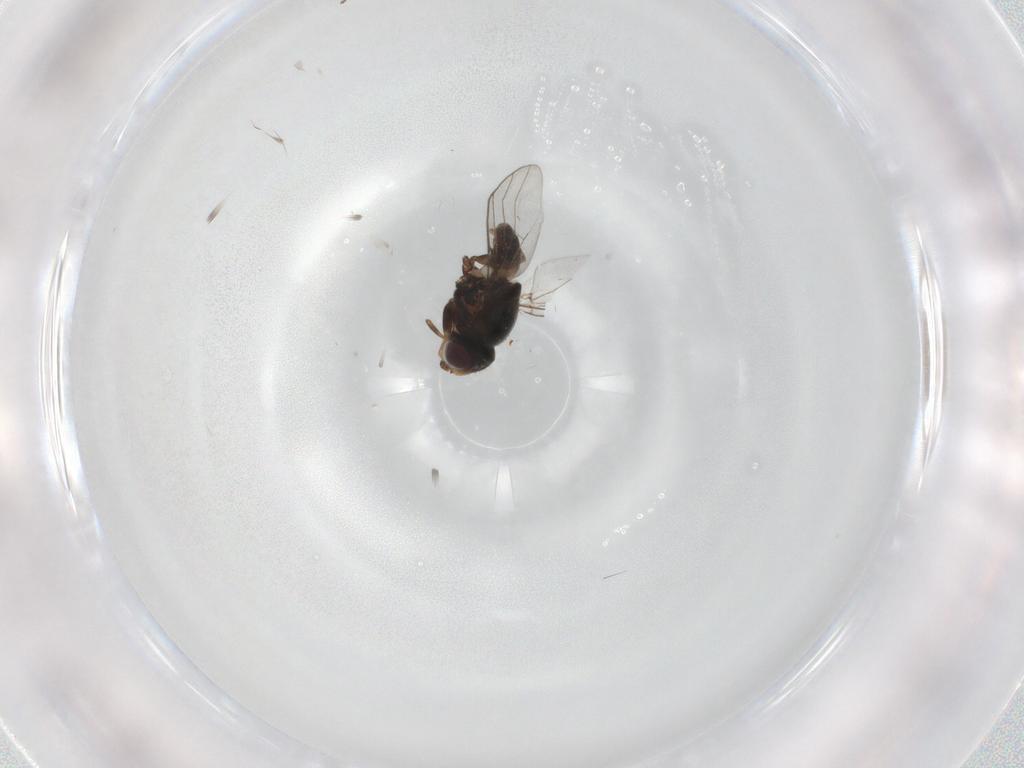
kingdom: Animalia
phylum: Arthropoda
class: Insecta
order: Diptera
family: Chloropidae
